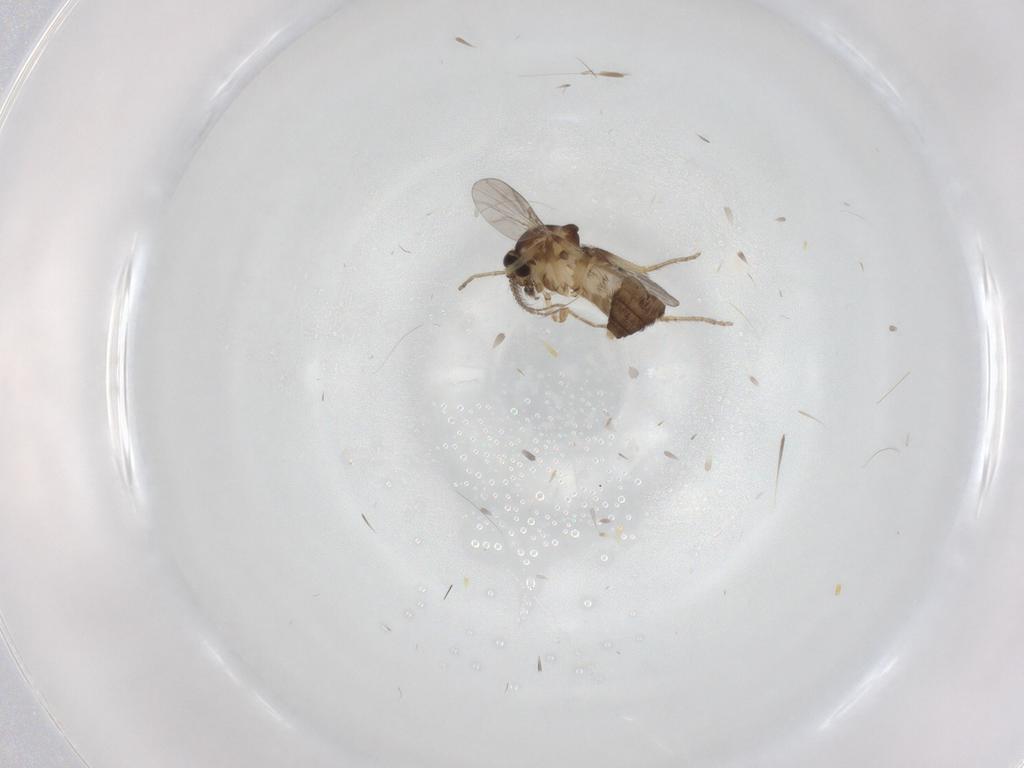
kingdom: Animalia
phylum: Arthropoda
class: Insecta
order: Diptera
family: Ceratopogonidae
